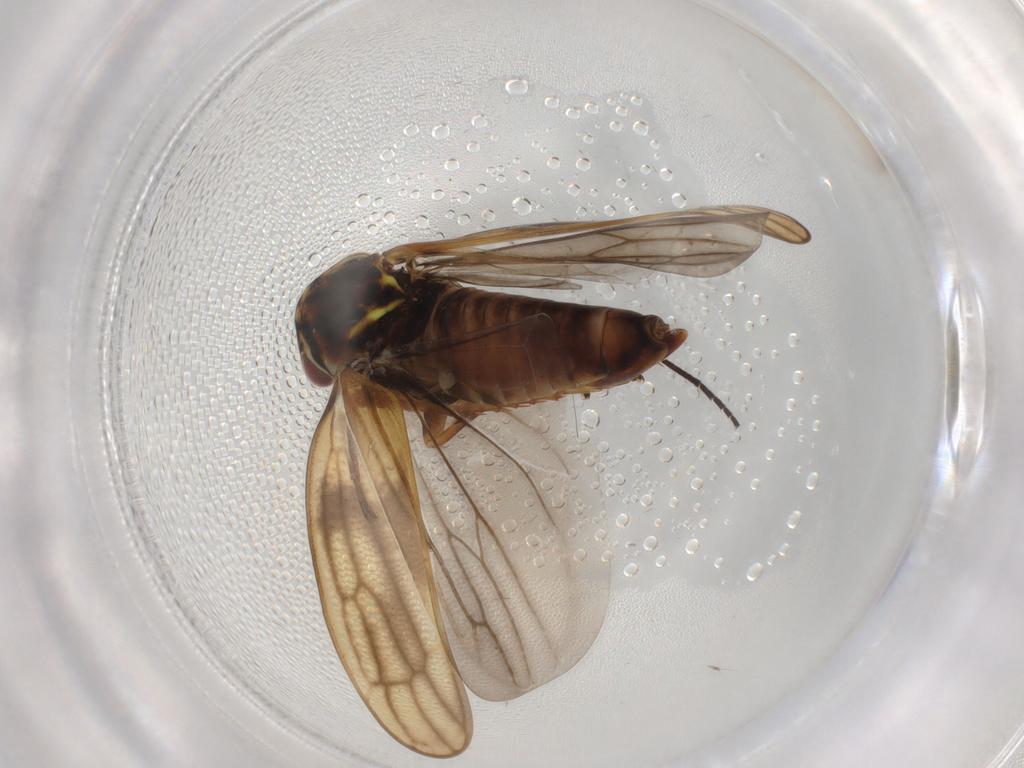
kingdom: Animalia
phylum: Arthropoda
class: Insecta
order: Hemiptera
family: Cicadellidae
